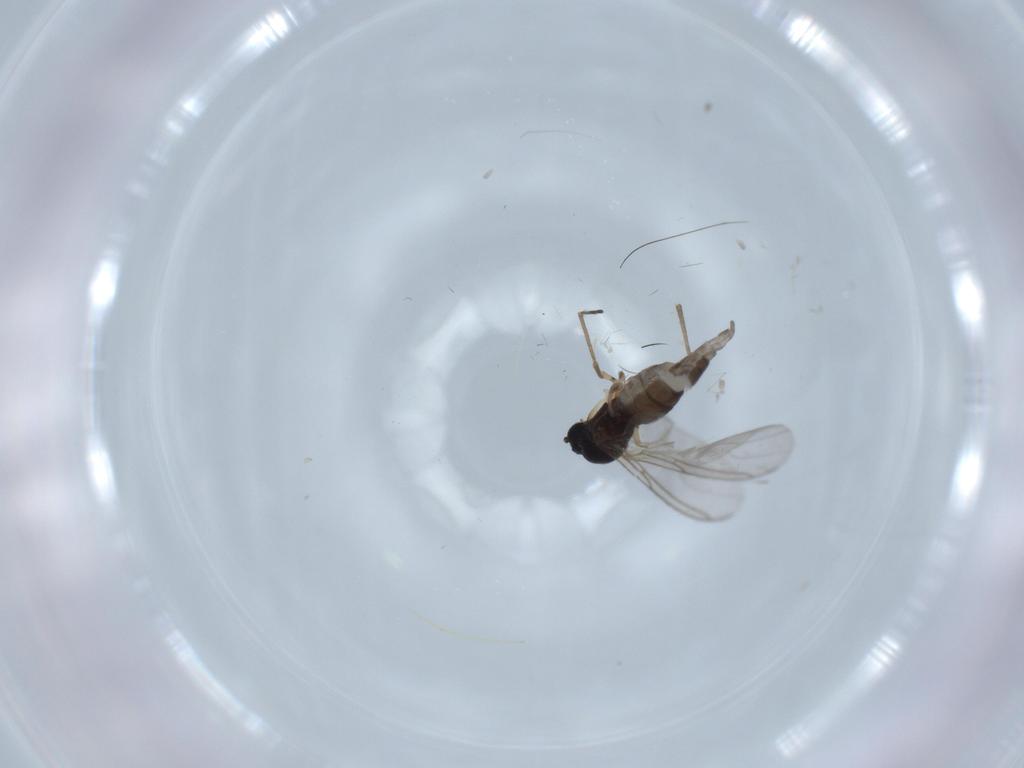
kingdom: Animalia
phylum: Arthropoda
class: Insecta
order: Diptera
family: Sciaridae
